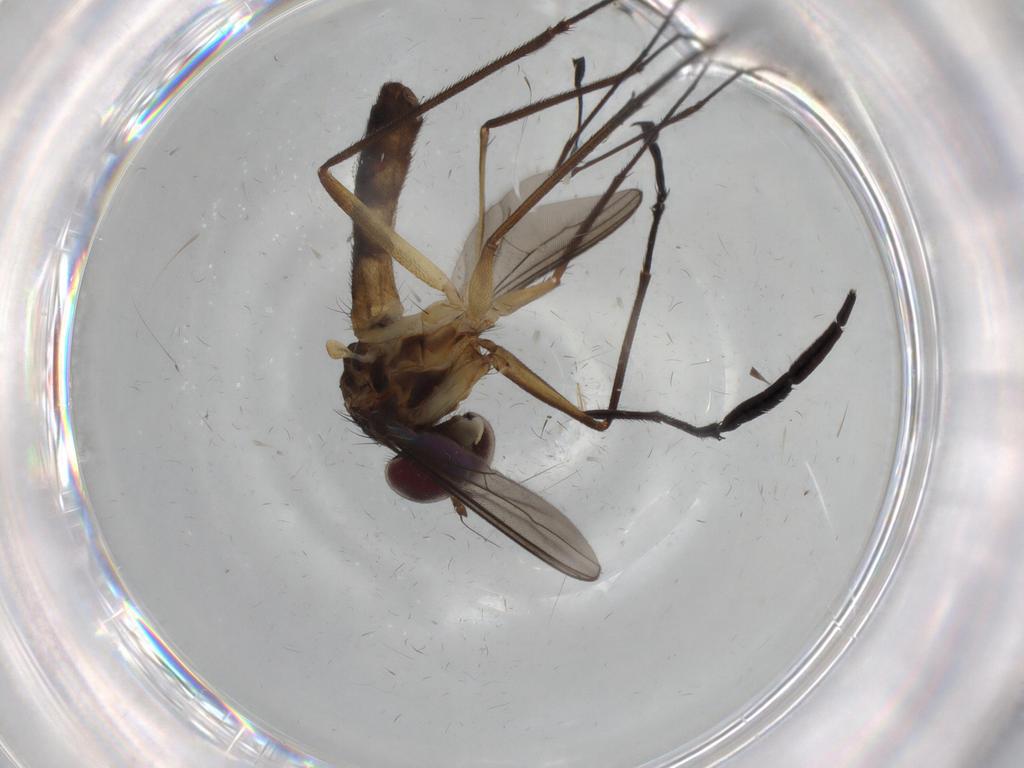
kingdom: Animalia
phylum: Arthropoda
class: Insecta
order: Diptera
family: Dolichopodidae
